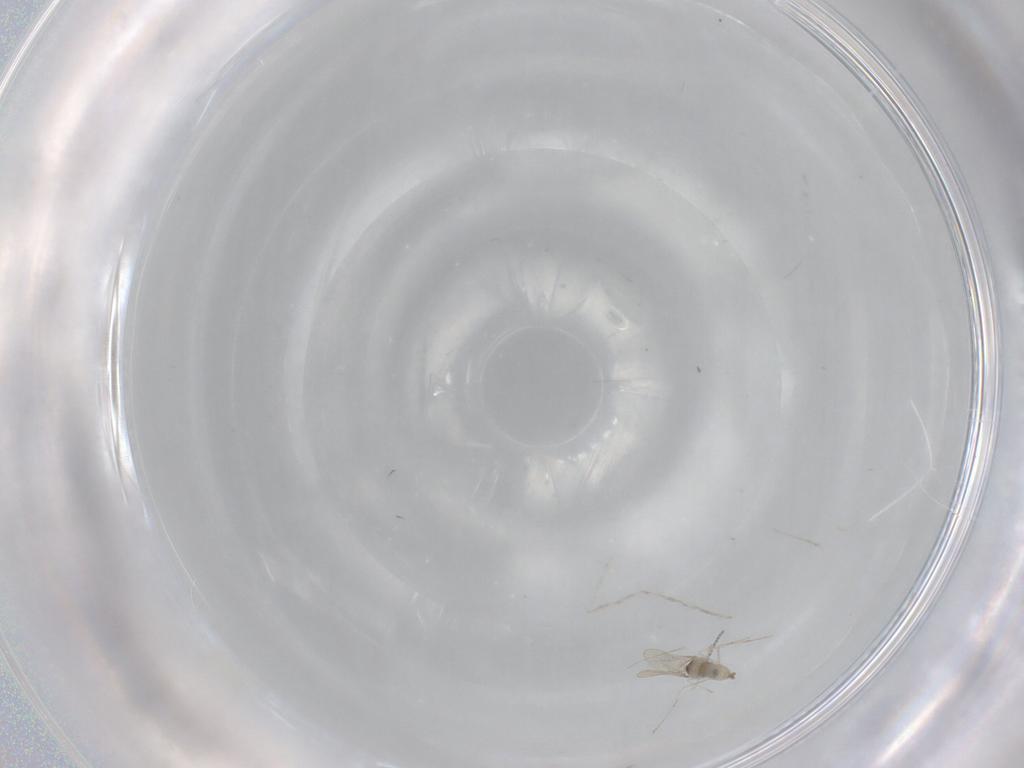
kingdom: Animalia
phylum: Arthropoda
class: Insecta
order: Diptera
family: Cecidomyiidae
